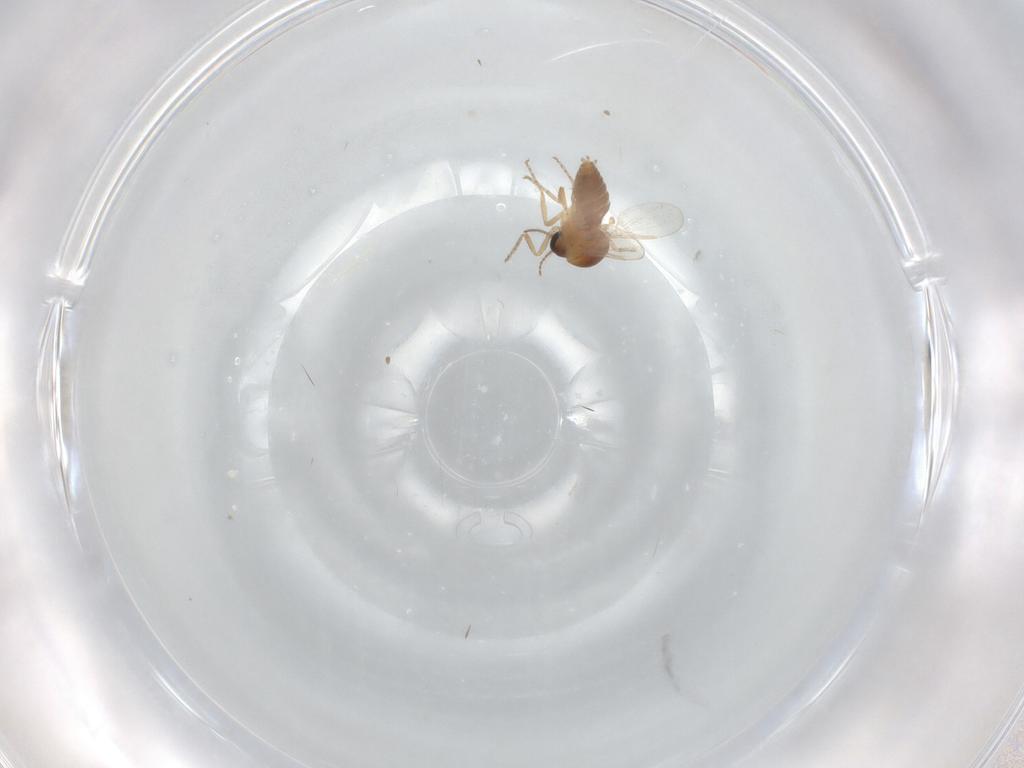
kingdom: Animalia
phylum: Arthropoda
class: Insecta
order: Diptera
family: Ceratopogonidae
